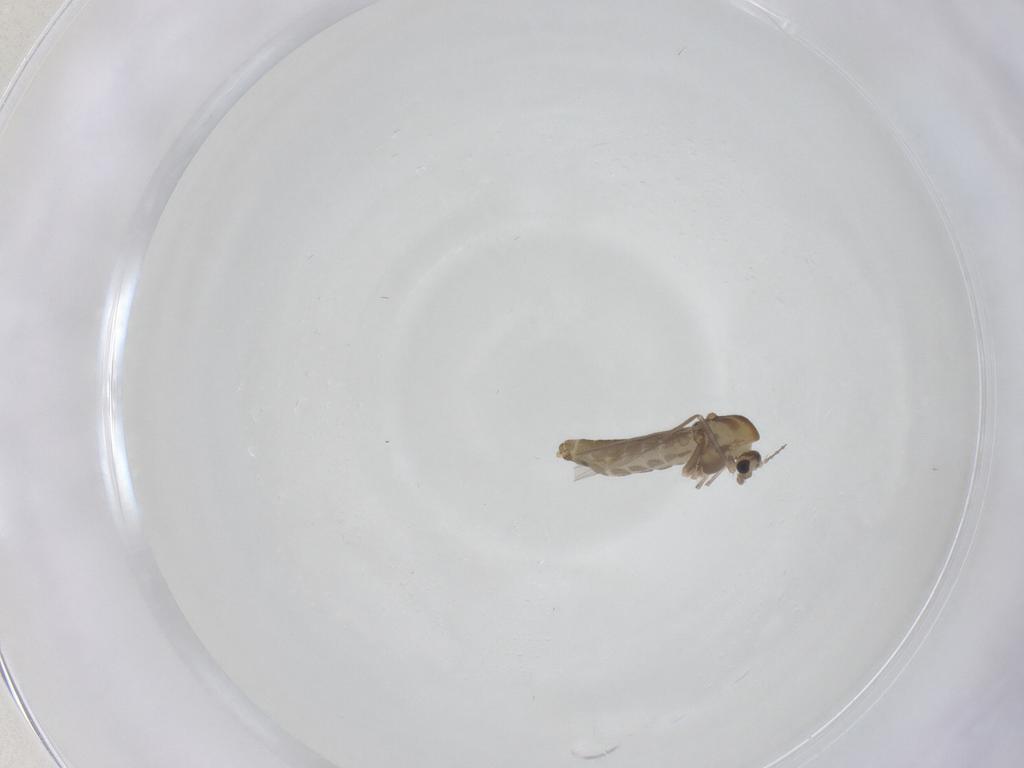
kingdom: Animalia
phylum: Arthropoda
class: Insecta
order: Diptera
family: Chironomidae
